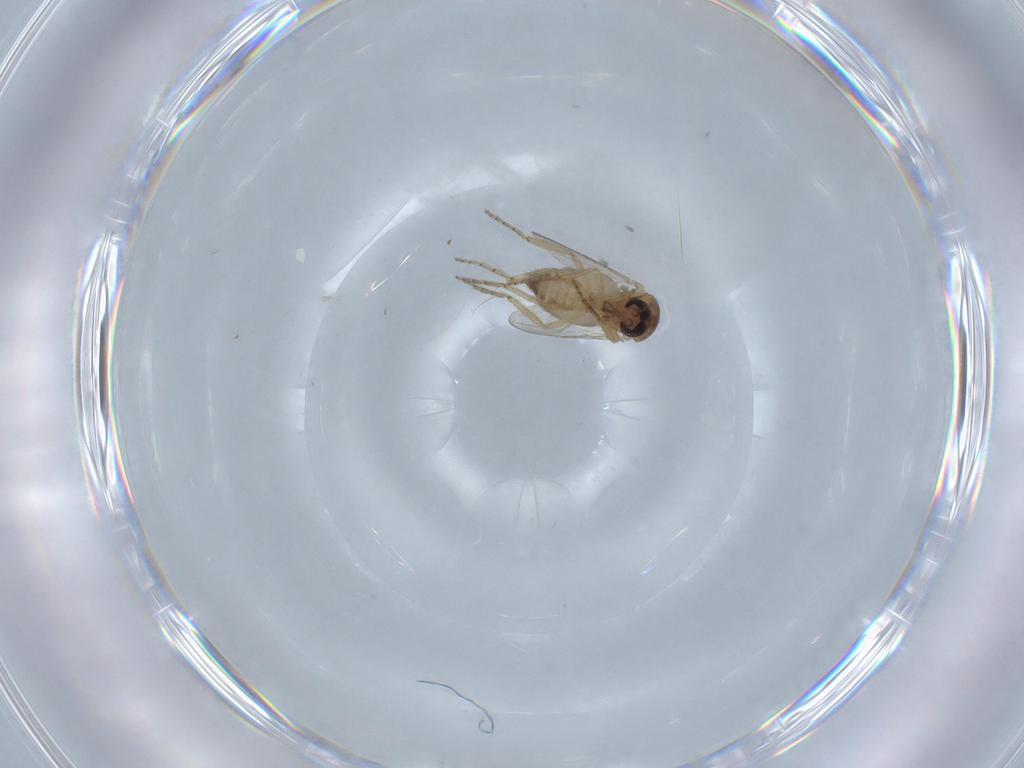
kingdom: Animalia
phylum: Arthropoda
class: Insecta
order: Diptera
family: Ceratopogonidae
